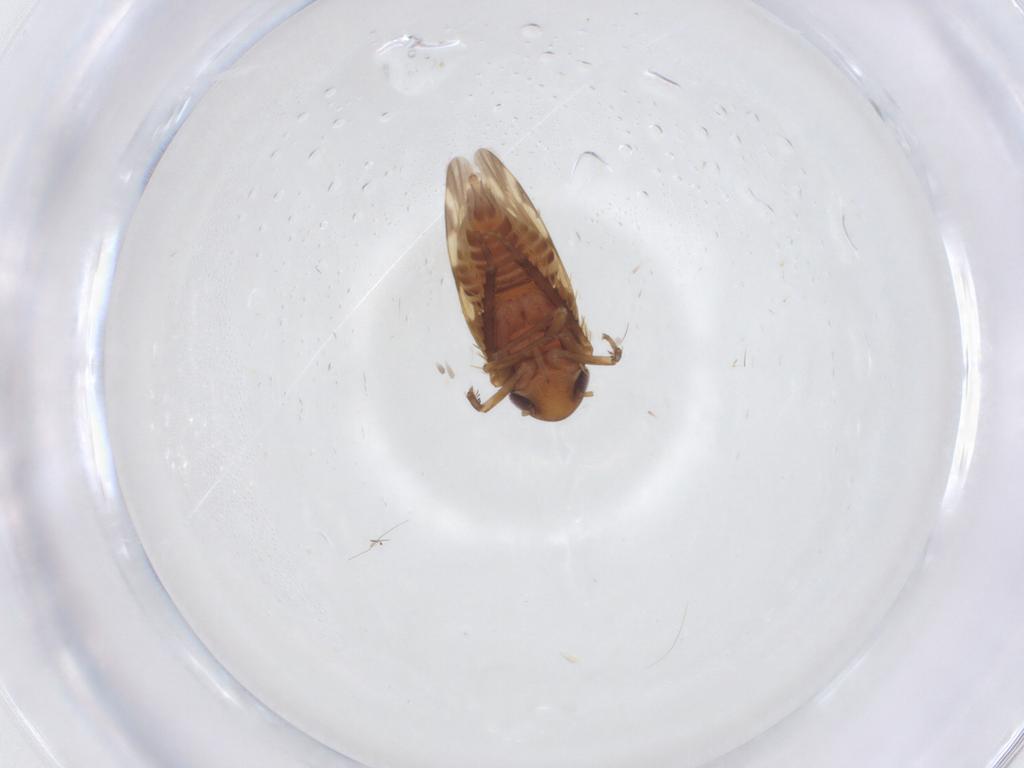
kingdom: Animalia
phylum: Arthropoda
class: Insecta
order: Hemiptera
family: Cicadellidae
